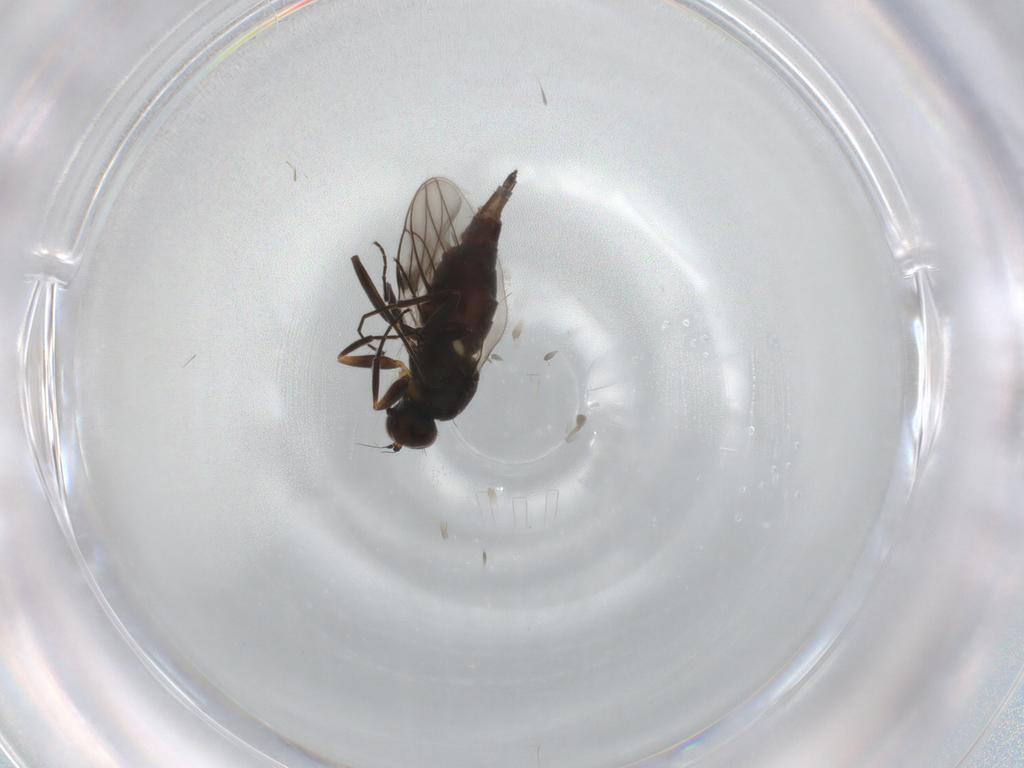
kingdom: Animalia
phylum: Arthropoda
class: Insecta
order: Diptera
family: Hybotidae
